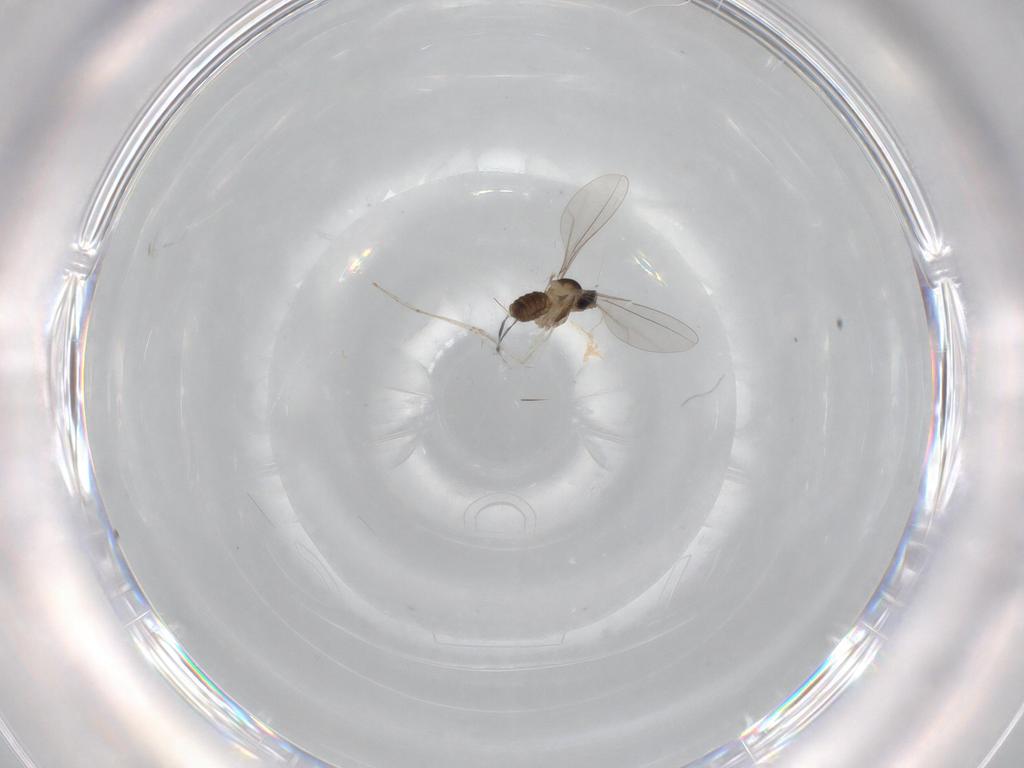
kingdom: Animalia
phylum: Arthropoda
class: Insecta
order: Diptera
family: Cecidomyiidae
